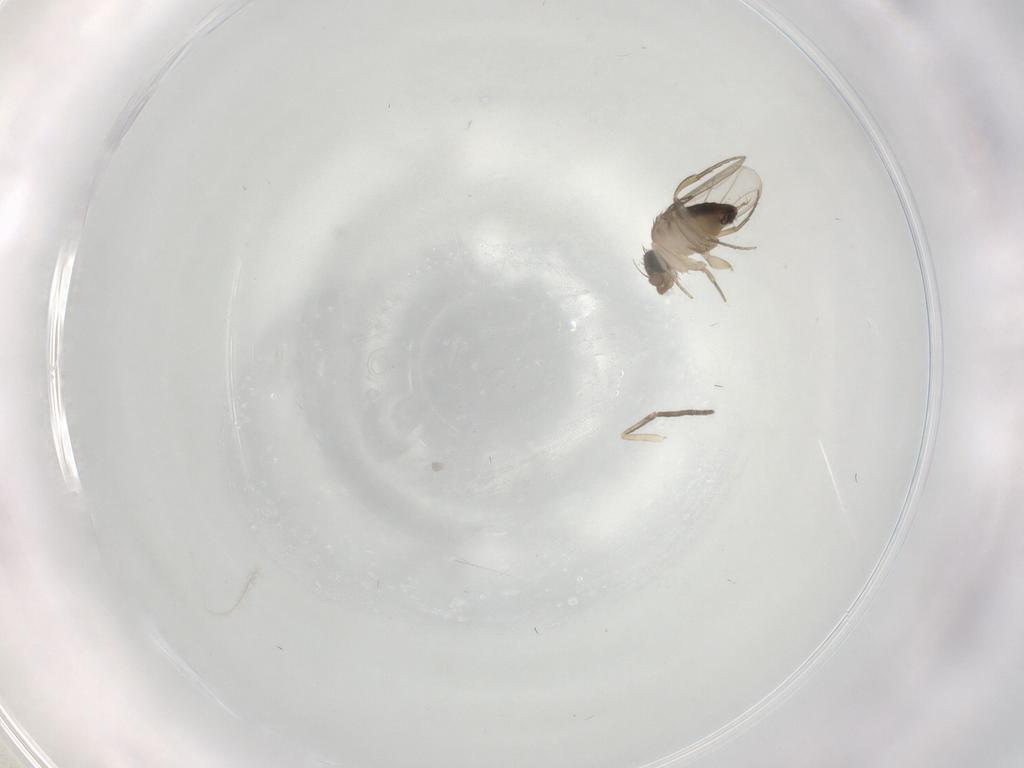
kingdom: Animalia
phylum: Arthropoda
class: Insecta
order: Diptera
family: Phoridae
